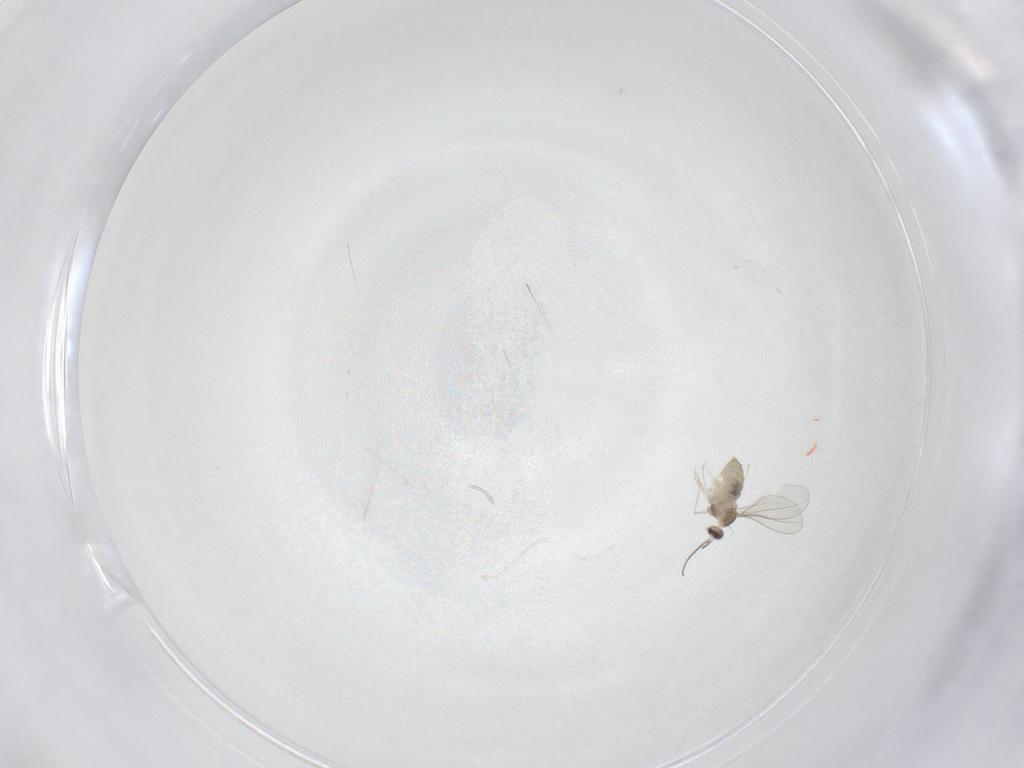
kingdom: Animalia
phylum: Arthropoda
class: Insecta
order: Diptera
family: Cecidomyiidae
